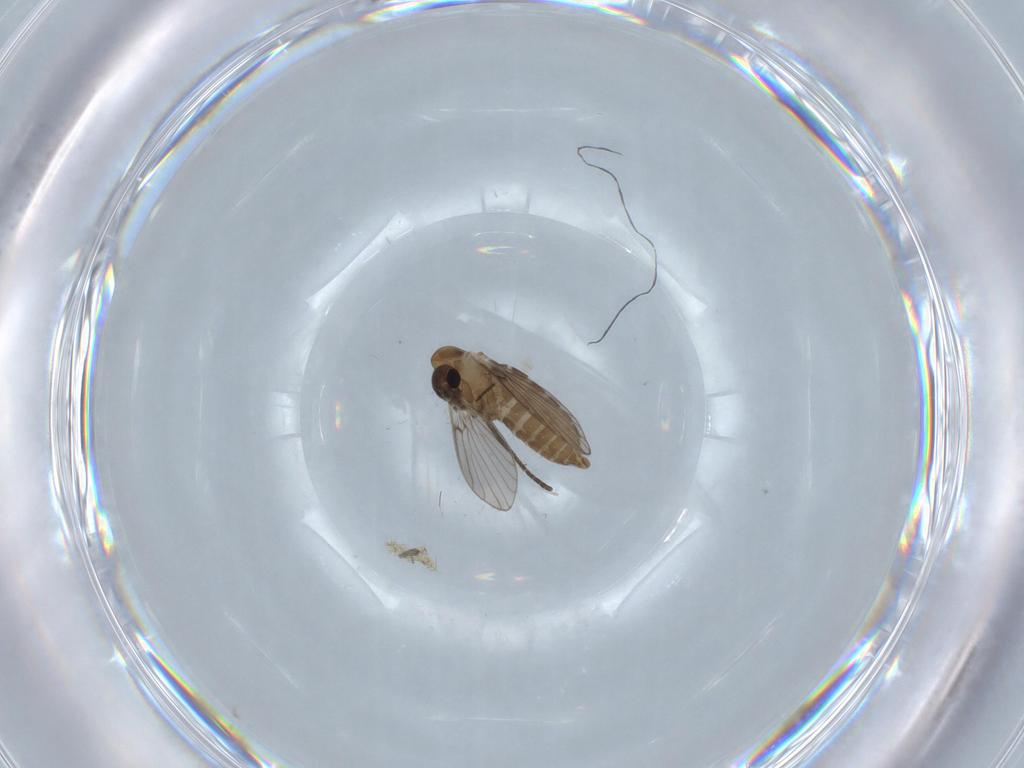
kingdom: Animalia
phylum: Arthropoda
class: Insecta
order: Diptera
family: Cecidomyiidae
